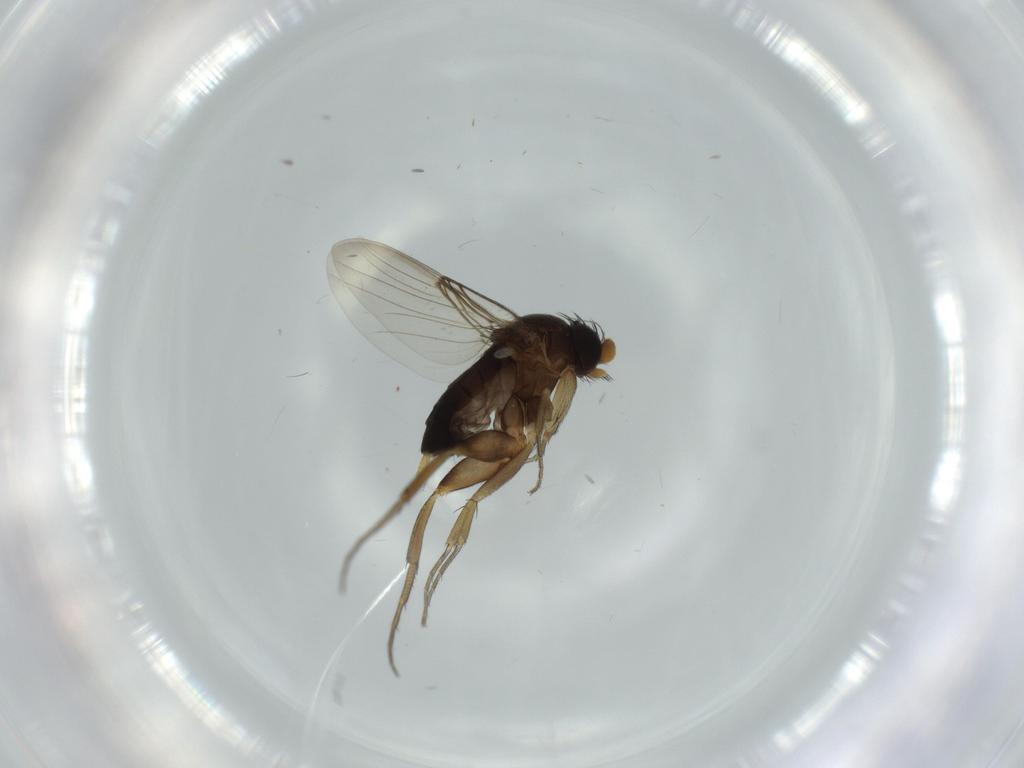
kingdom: Animalia
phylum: Arthropoda
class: Insecta
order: Diptera
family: Phoridae
